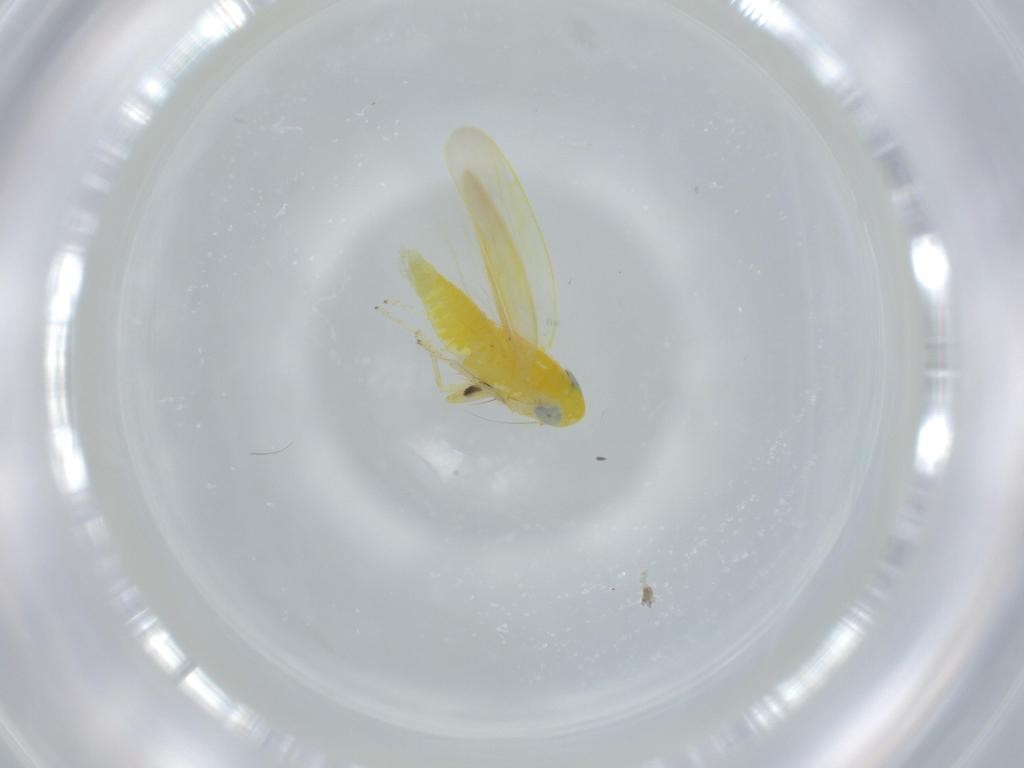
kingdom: Animalia
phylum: Arthropoda
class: Insecta
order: Hemiptera
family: Cicadellidae
